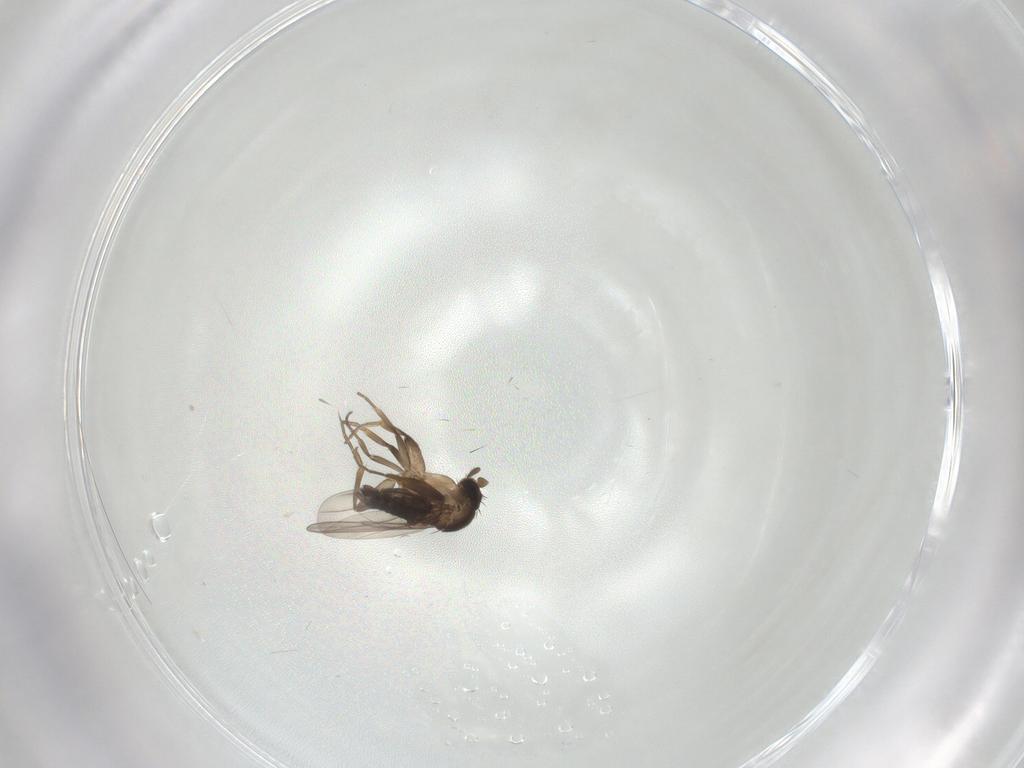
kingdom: Animalia
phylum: Arthropoda
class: Insecta
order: Diptera
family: Phoridae
